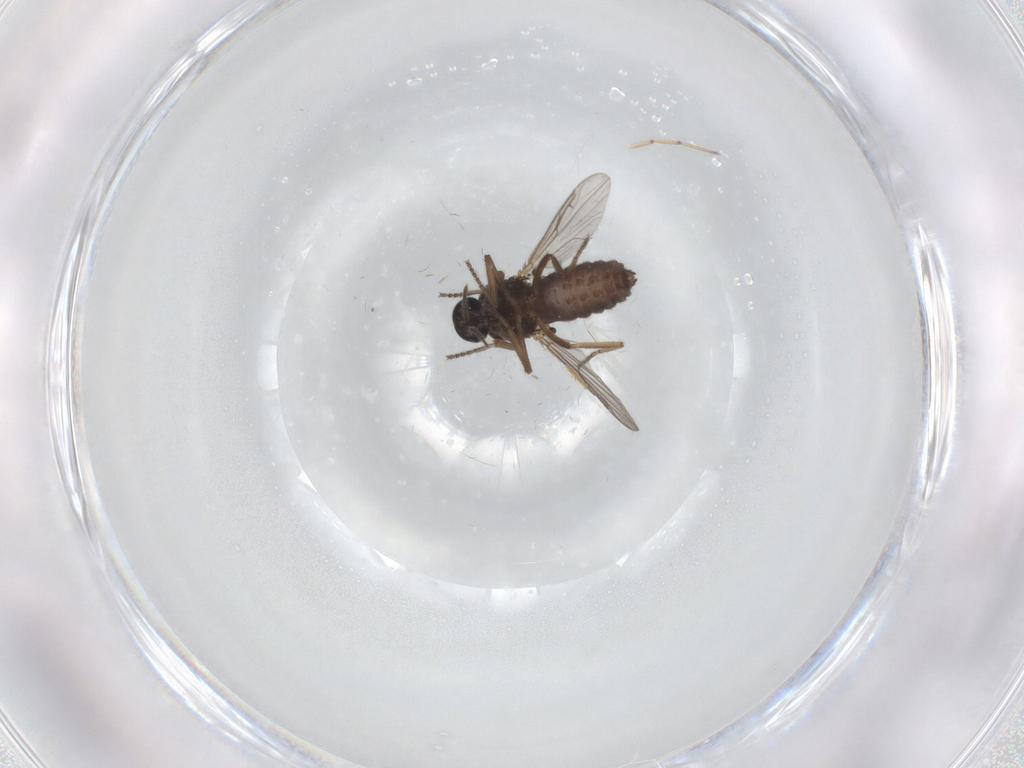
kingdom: Animalia
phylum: Arthropoda
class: Insecta
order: Diptera
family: Ceratopogonidae
